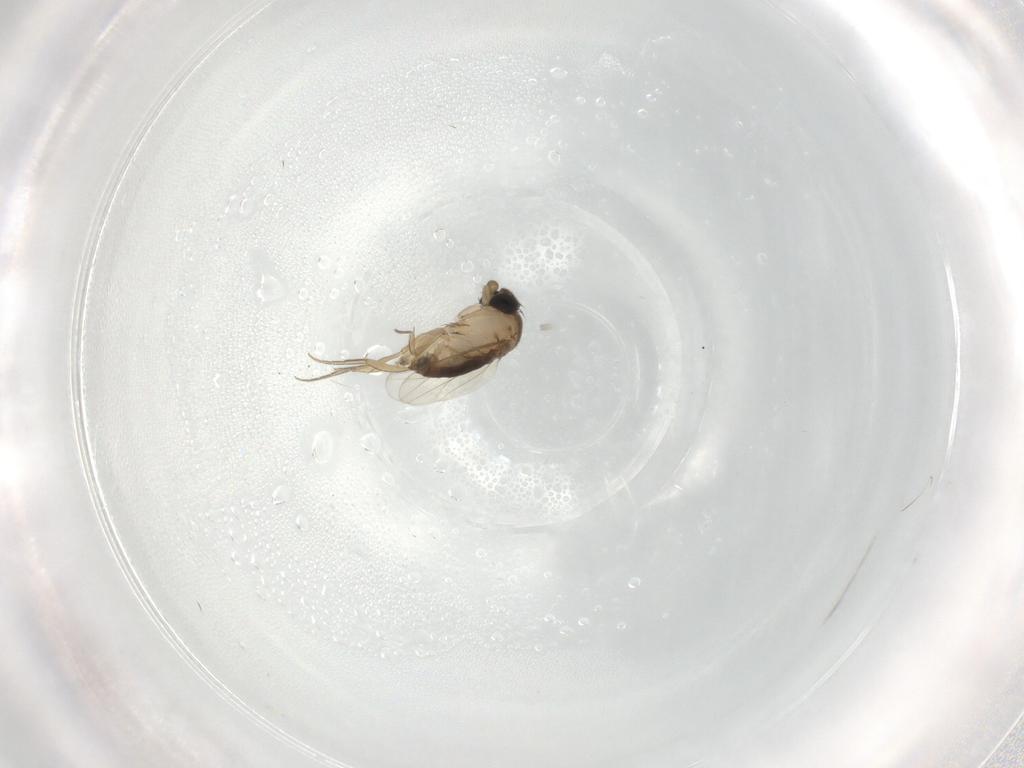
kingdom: Animalia
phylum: Arthropoda
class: Insecta
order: Diptera
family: Phoridae
